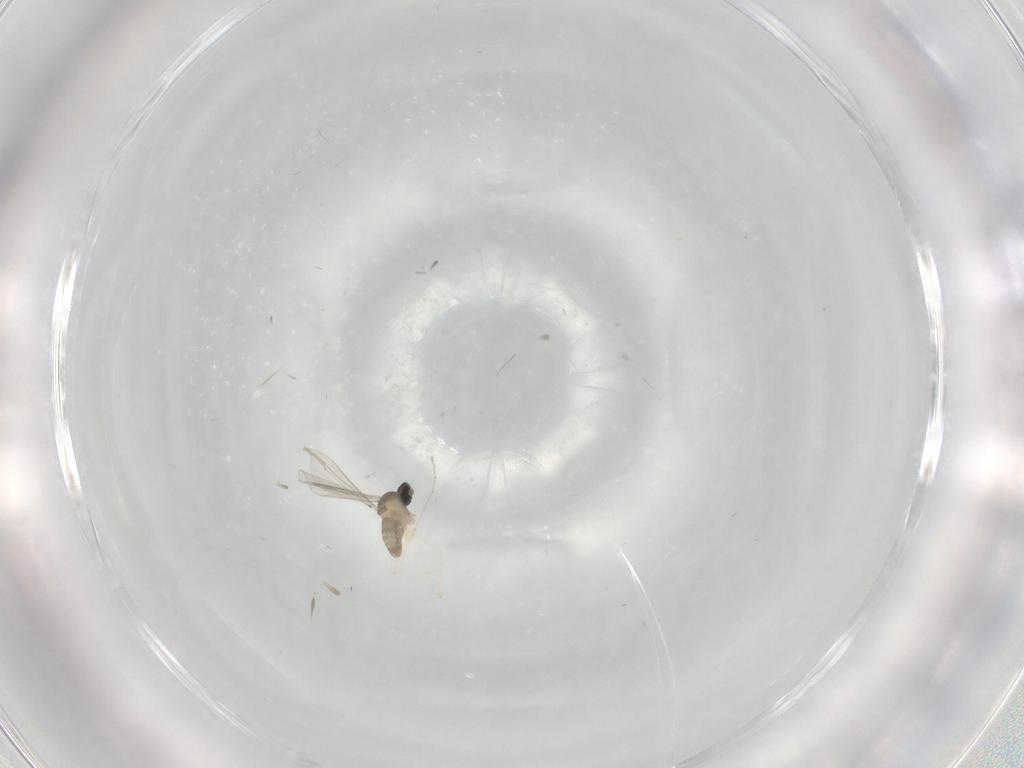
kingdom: Animalia
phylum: Arthropoda
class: Insecta
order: Diptera
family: Cecidomyiidae
